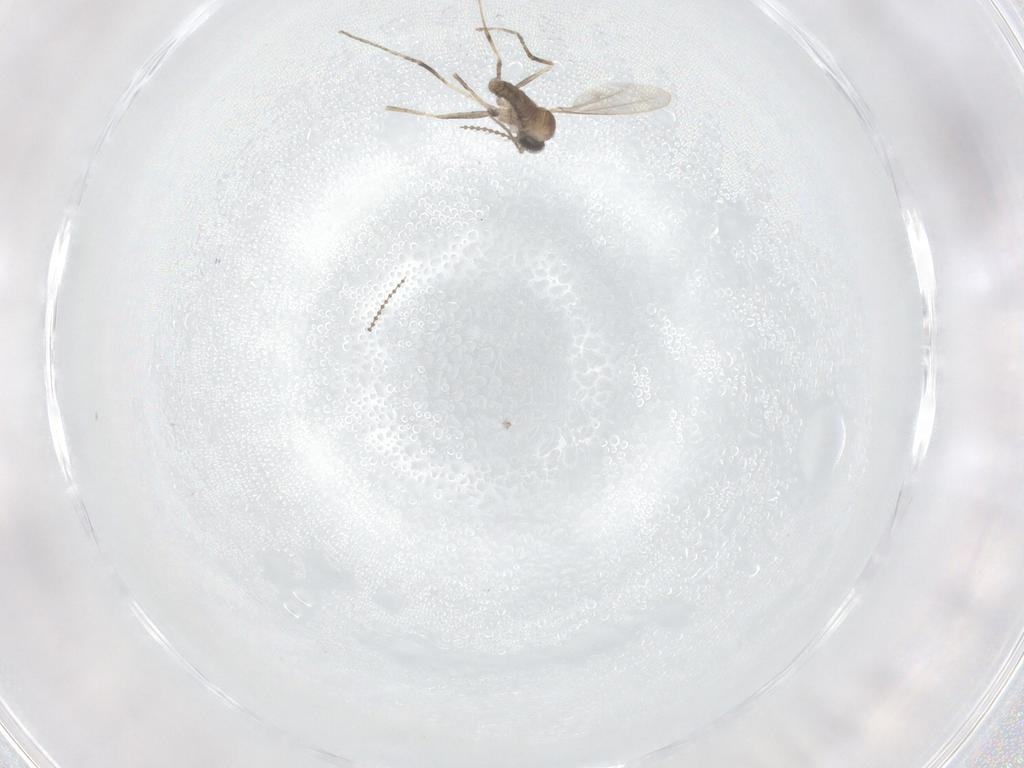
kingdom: Animalia
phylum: Arthropoda
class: Insecta
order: Diptera
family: Cecidomyiidae
